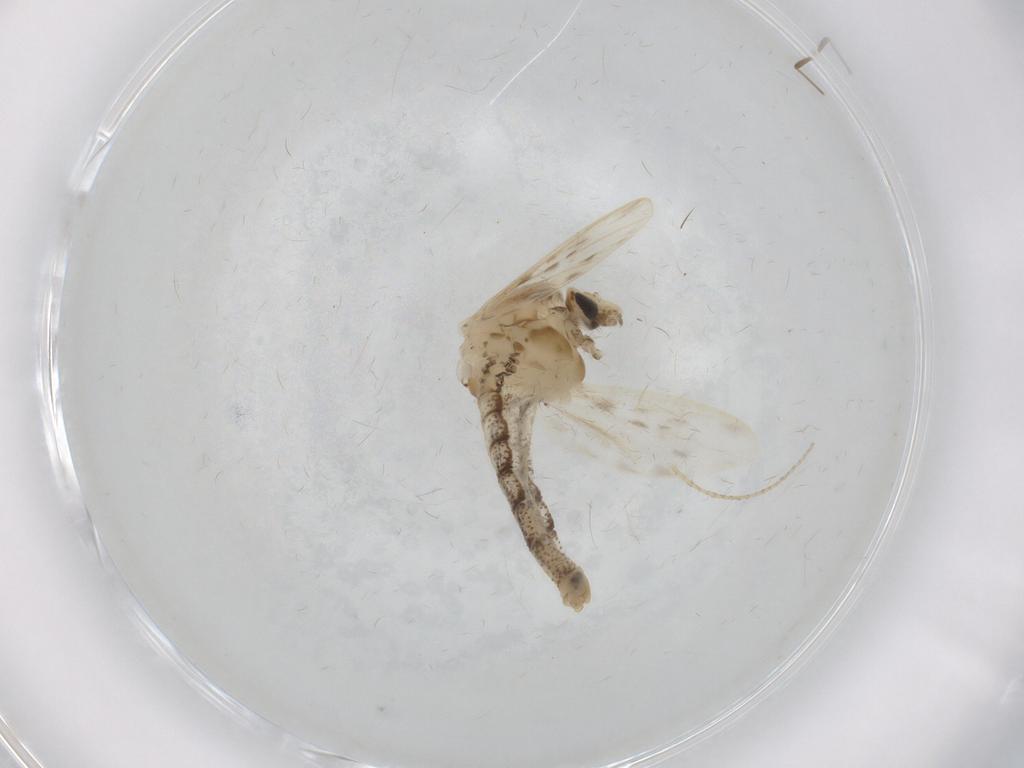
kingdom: Animalia
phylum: Arthropoda
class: Insecta
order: Diptera
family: Chaoboridae
